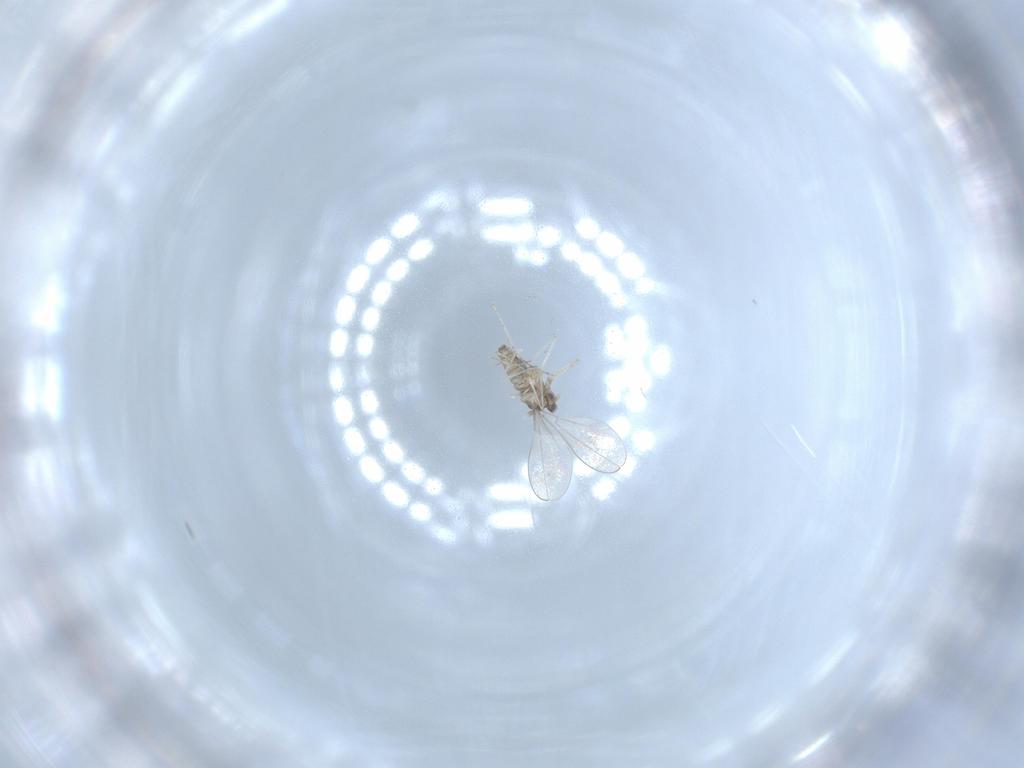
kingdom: Animalia
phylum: Arthropoda
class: Insecta
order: Diptera
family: Cecidomyiidae
